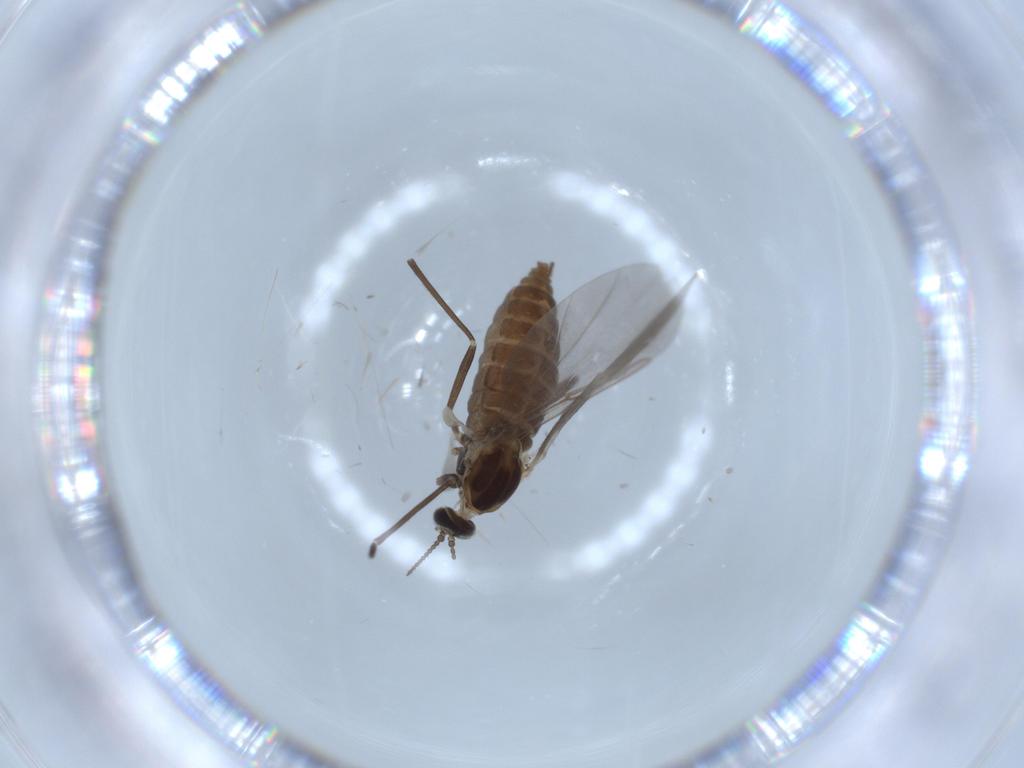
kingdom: Animalia
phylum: Arthropoda
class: Insecta
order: Diptera
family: Cecidomyiidae
